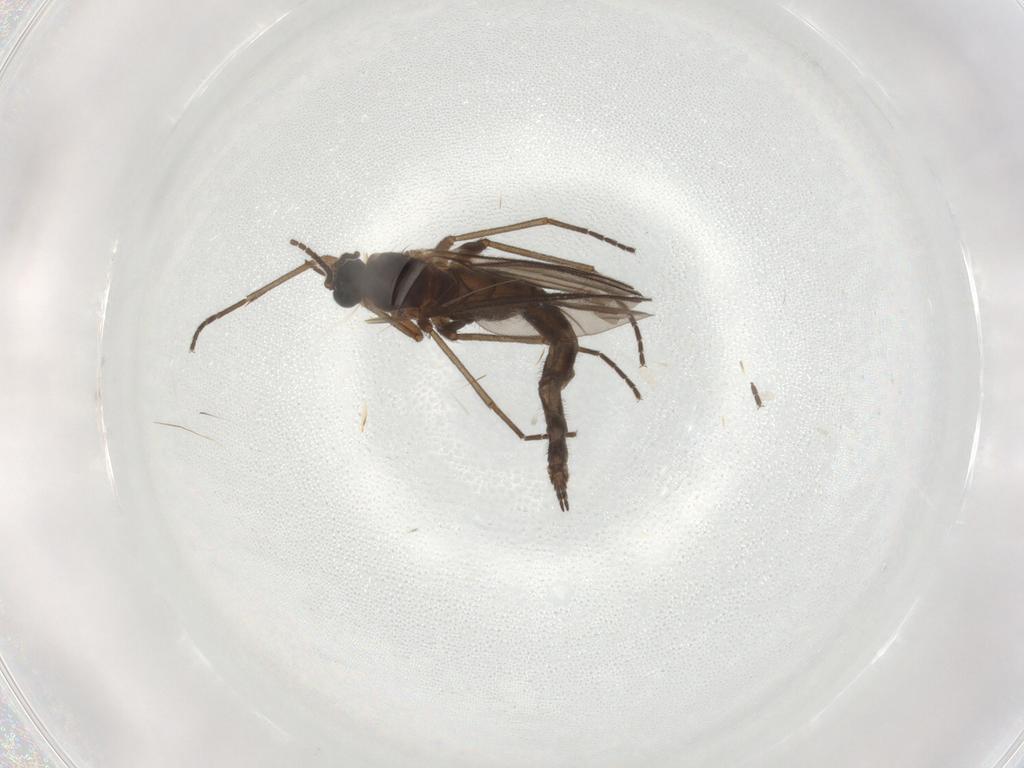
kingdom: Animalia
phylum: Arthropoda
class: Insecta
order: Diptera
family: Sciaridae
